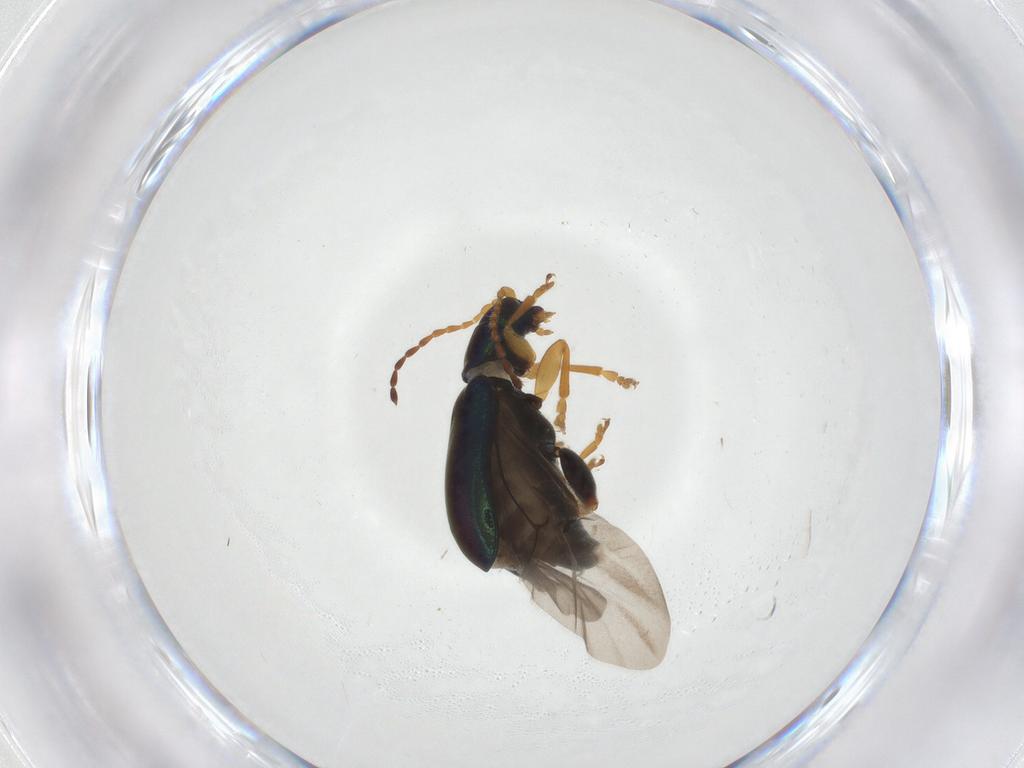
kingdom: Animalia
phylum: Arthropoda
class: Insecta
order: Coleoptera
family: Chrysomelidae
